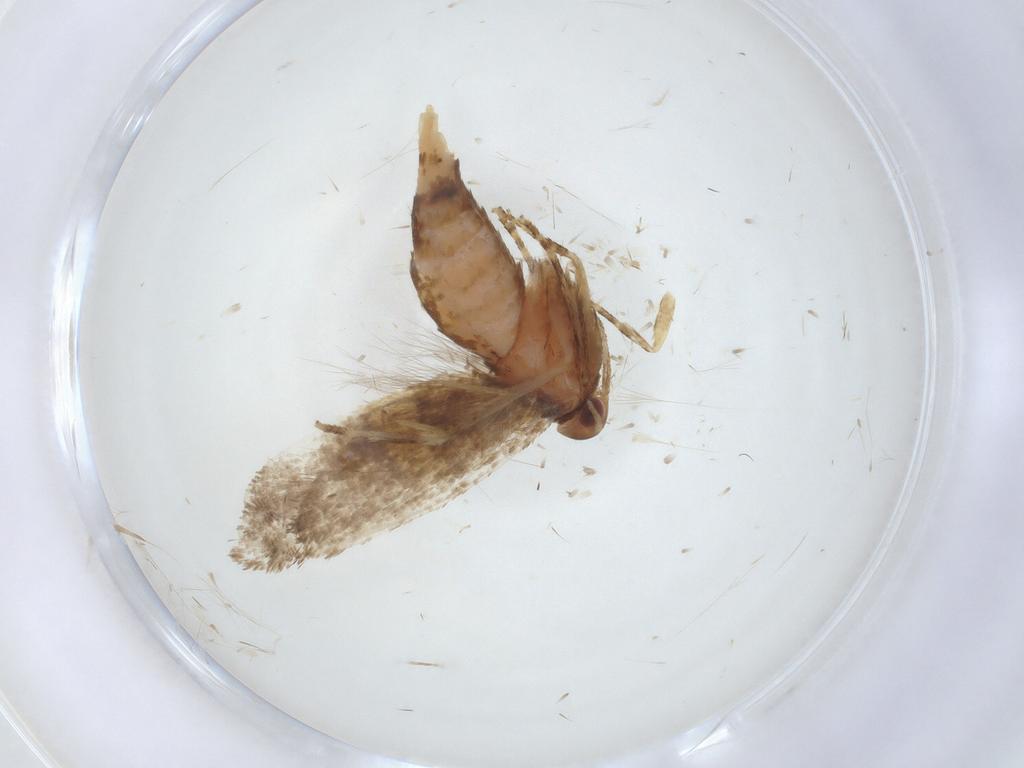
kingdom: Animalia
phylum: Arthropoda
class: Insecta
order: Lepidoptera
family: Oecophoridae
